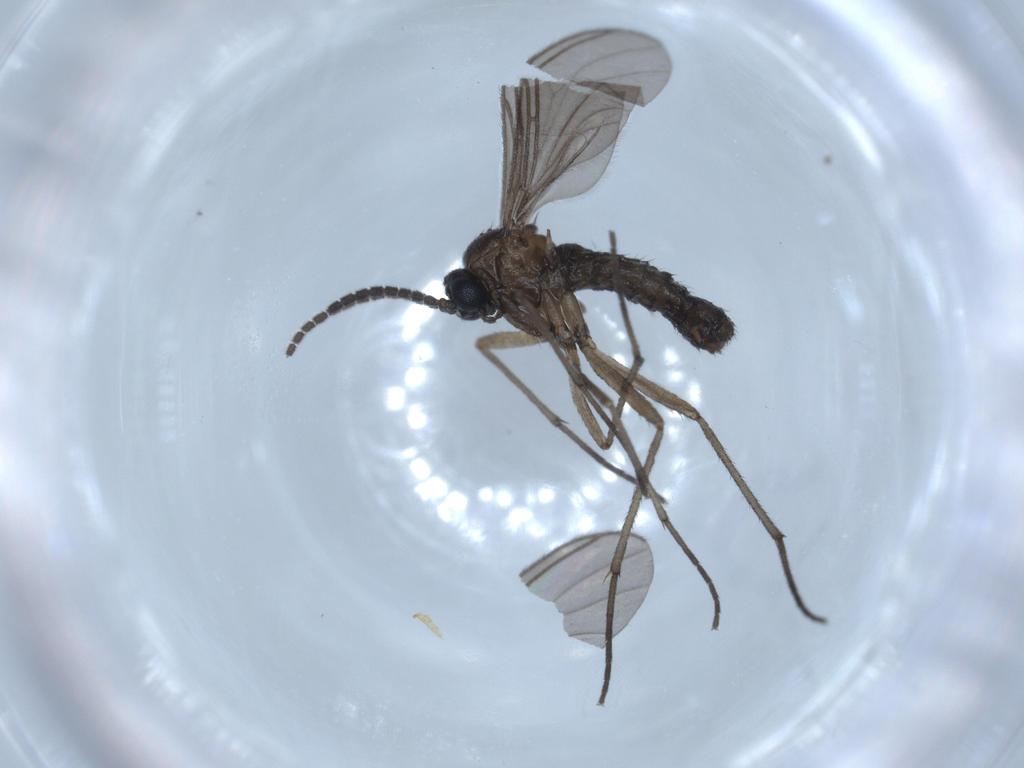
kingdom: Animalia
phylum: Arthropoda
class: Insecta
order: Diptera
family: Sciaridae
